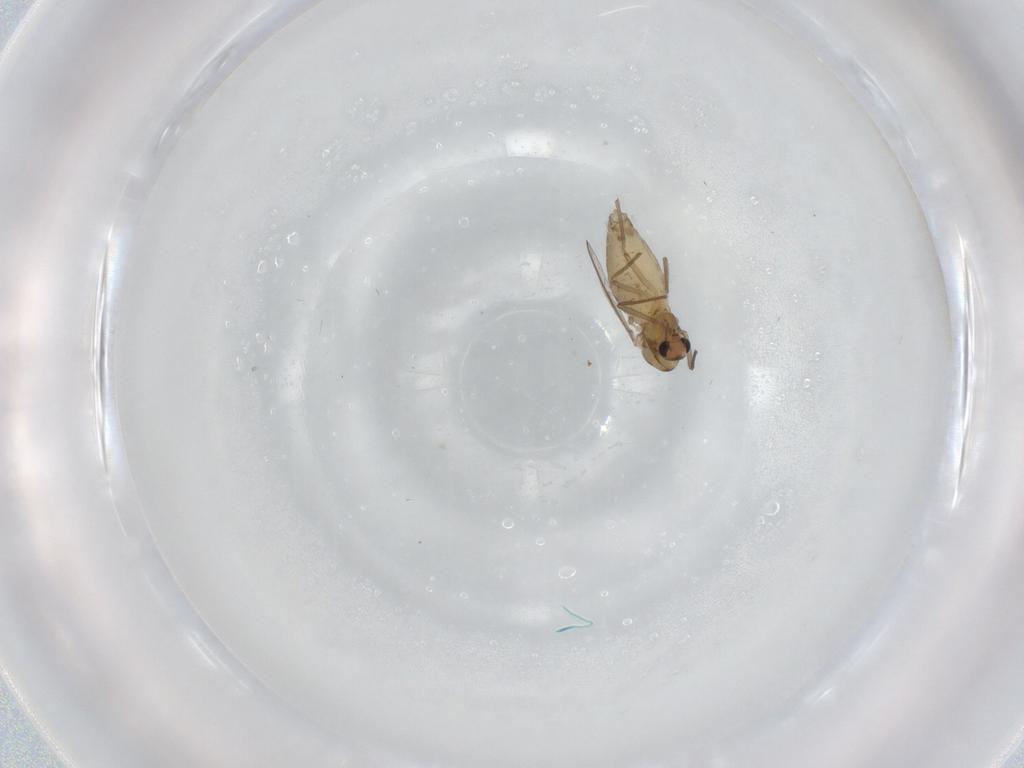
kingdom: Animalia
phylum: Arthropoda
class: Insecta
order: Diptera
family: Chironomidae
